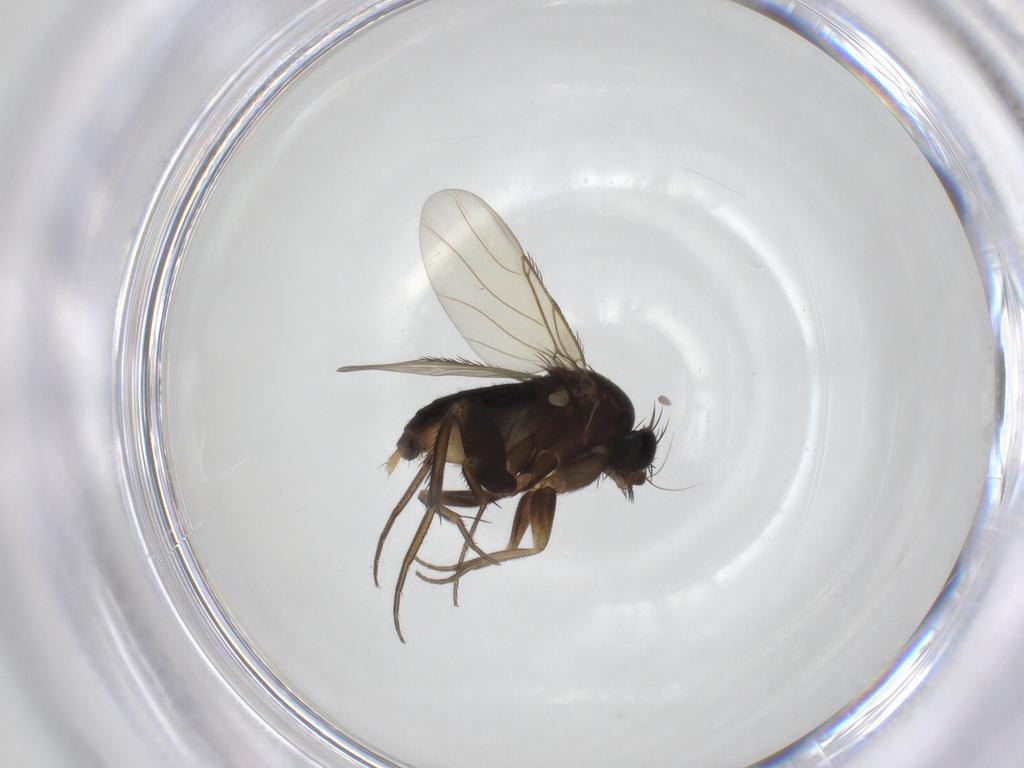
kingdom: Animalia
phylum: Arthropoda
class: Insecta
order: Diptera
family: Phoridae
